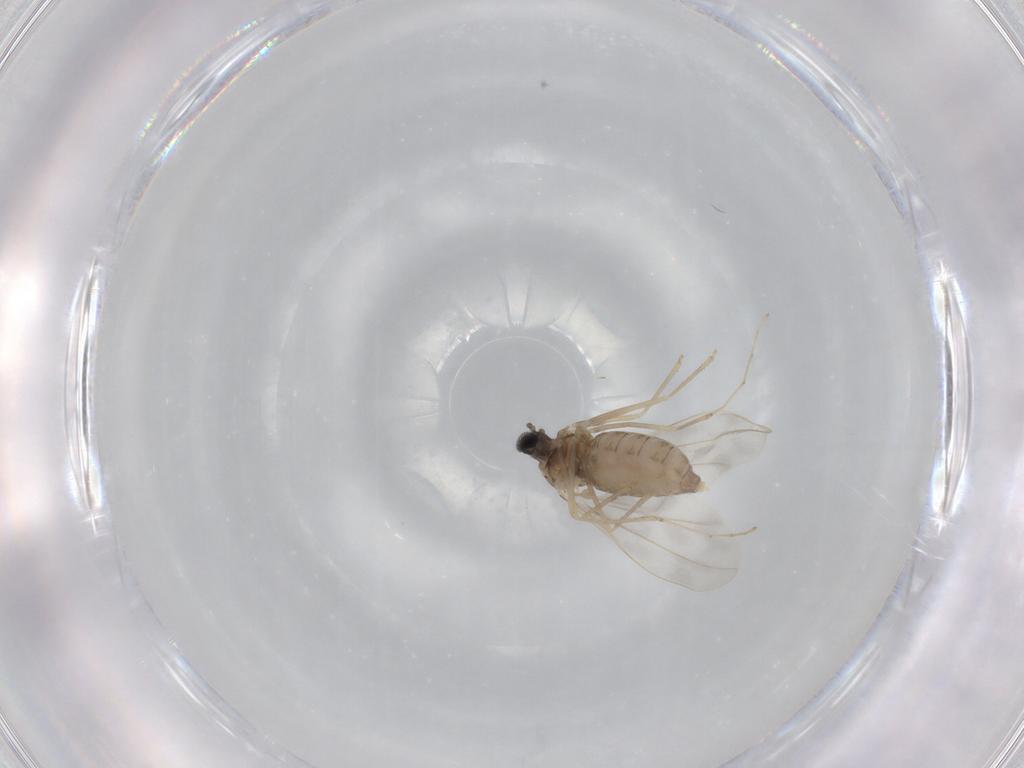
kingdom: Animalia
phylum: Arthropoda
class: Insecta
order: Diptera
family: Cecidomyiidae
